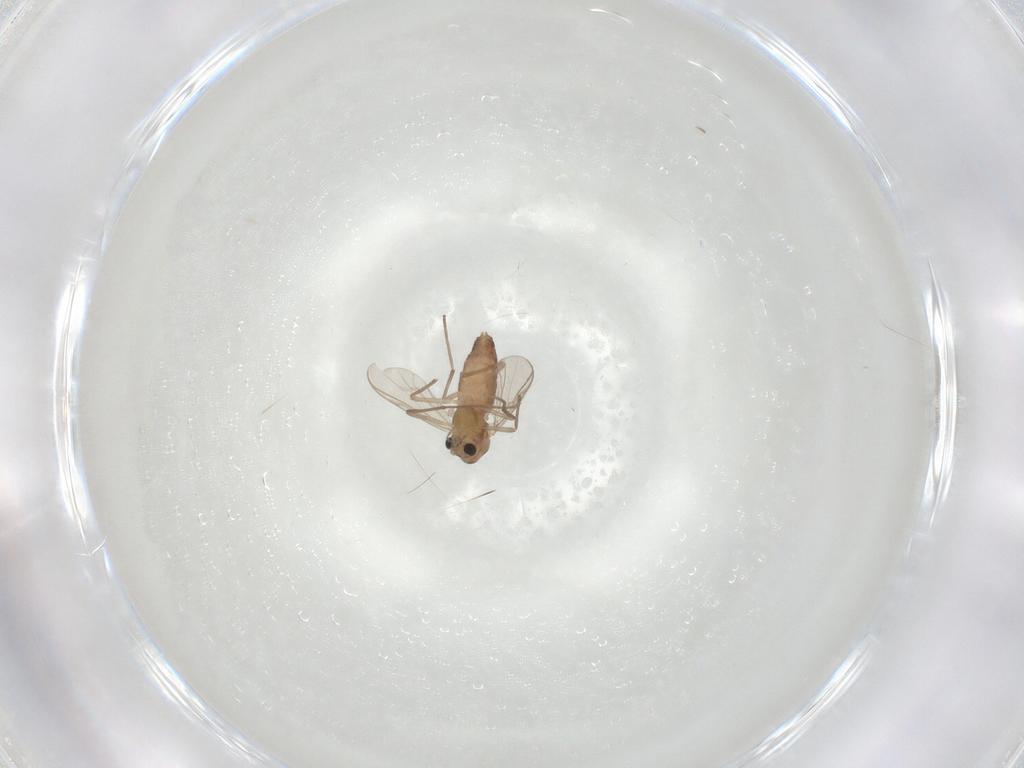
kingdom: Animalia
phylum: Arthropoda
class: Insecta
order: Diptera
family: Chironomidae
